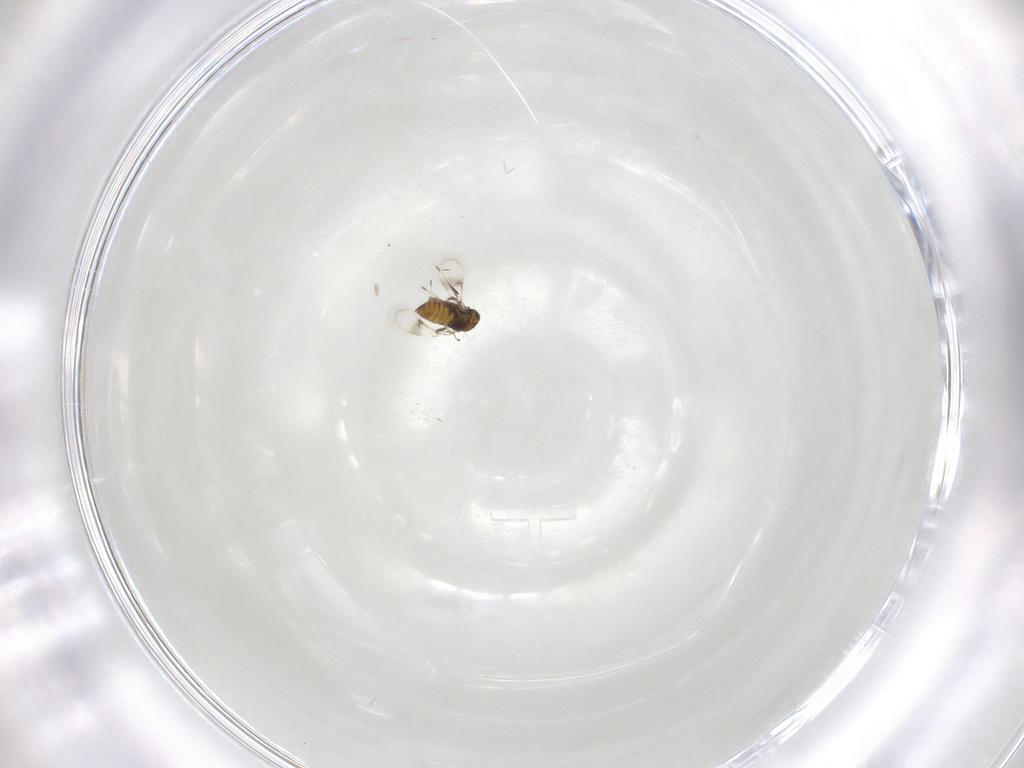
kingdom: Animalia
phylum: Arthropoda
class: Insecta
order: Hymenoptera
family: Trichogrammatidae
